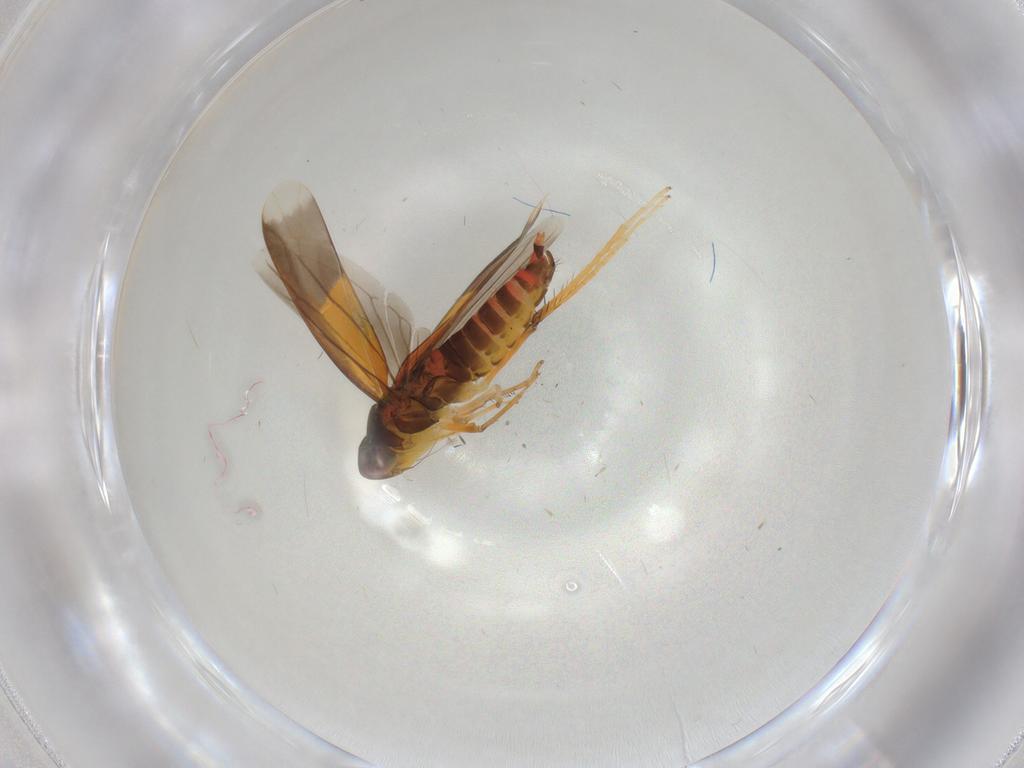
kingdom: Animalia
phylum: Arthropoda
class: Insecta
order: Hemiptera
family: Cicadellidae
